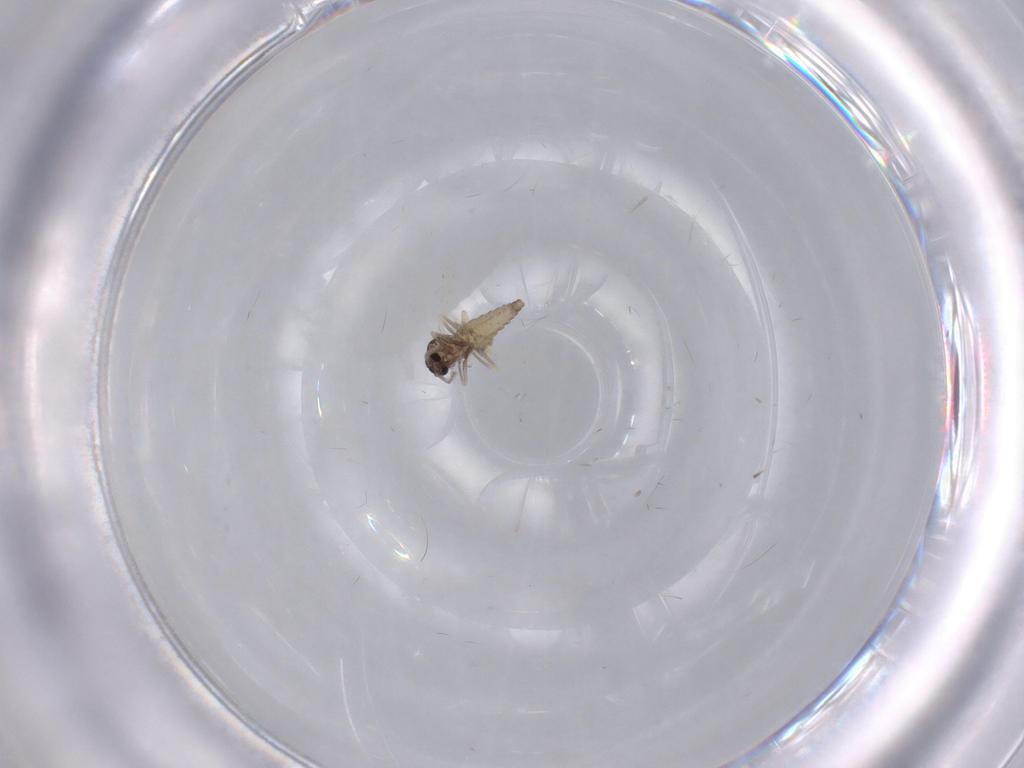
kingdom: Animalia
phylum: Arthropoda
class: Insecta
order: Diptera
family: Ceratopogonidae
